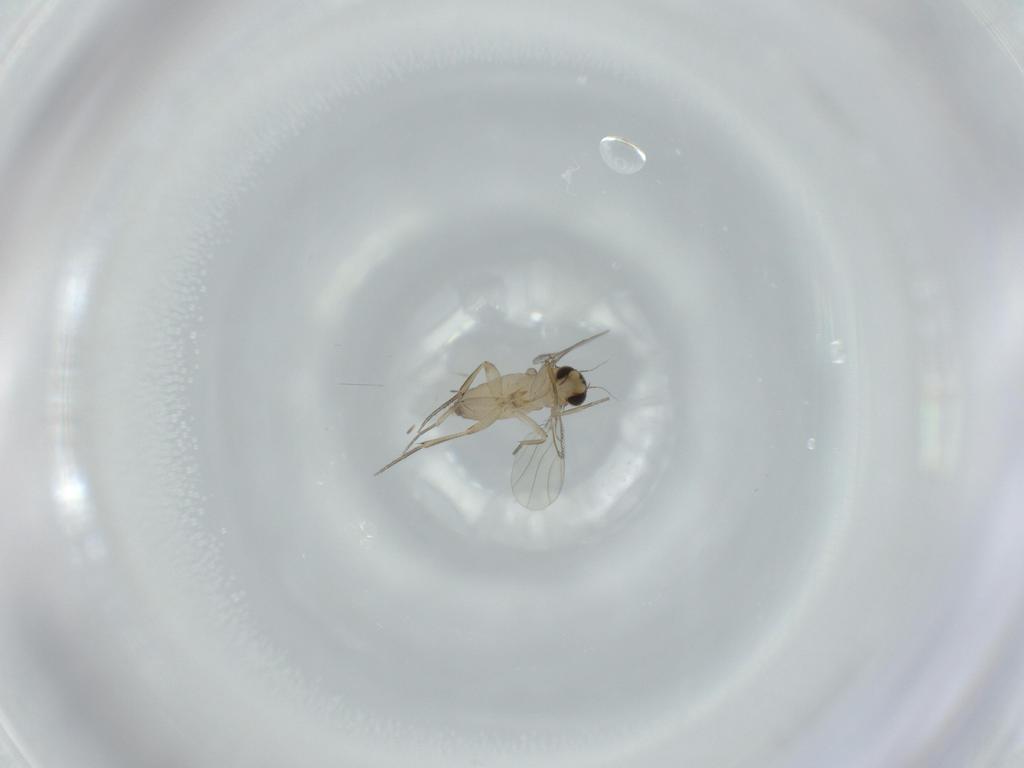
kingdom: Animalia
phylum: Arthropoda
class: Insecta
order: Diptera
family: Phoridae
